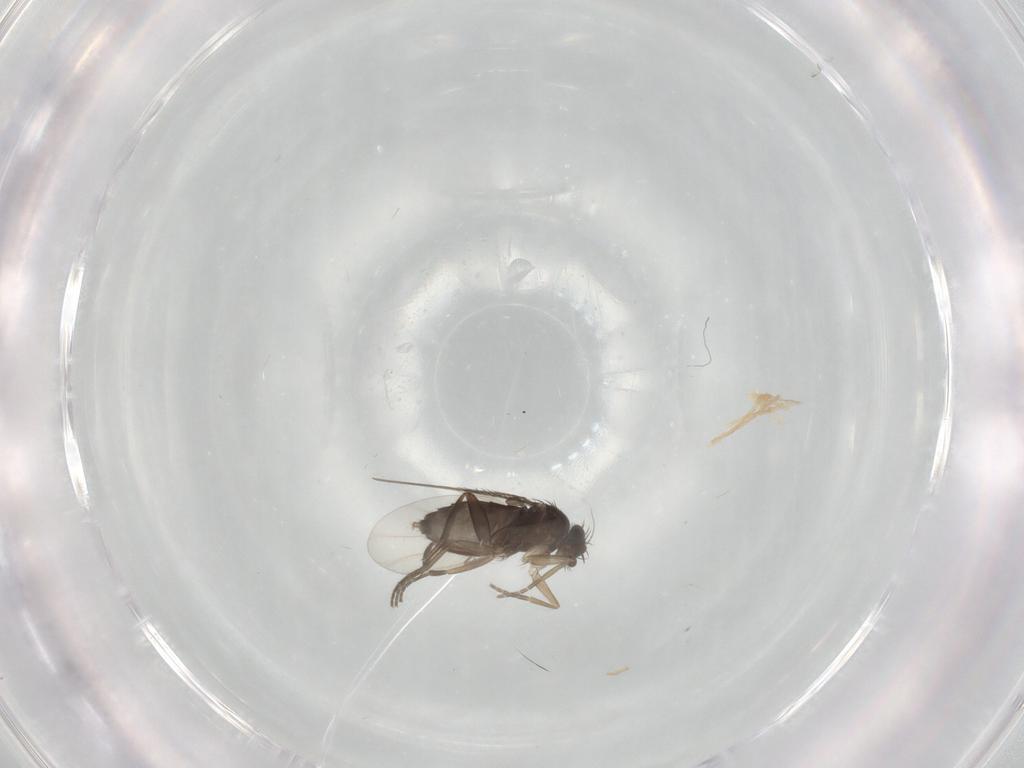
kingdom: Animalia
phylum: Arthropoda
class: Insecta
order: Diptera
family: Phoridae
